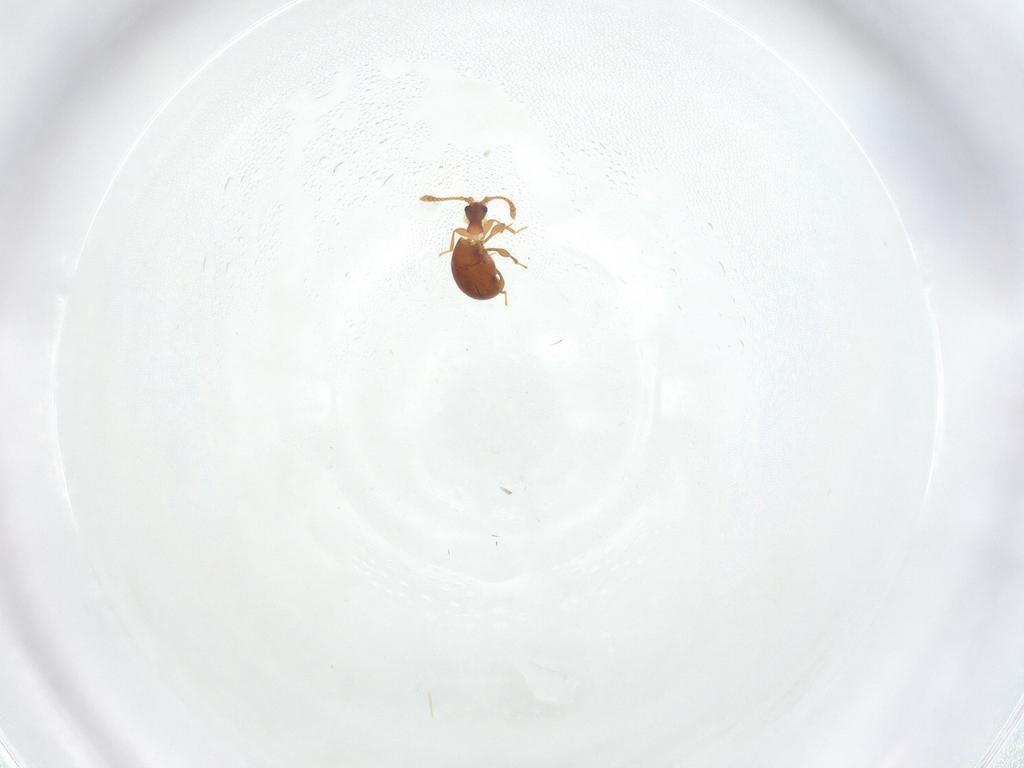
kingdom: Animalia
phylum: Arthropoda
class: Insecta
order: Coleoptera
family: Staphylinidae
